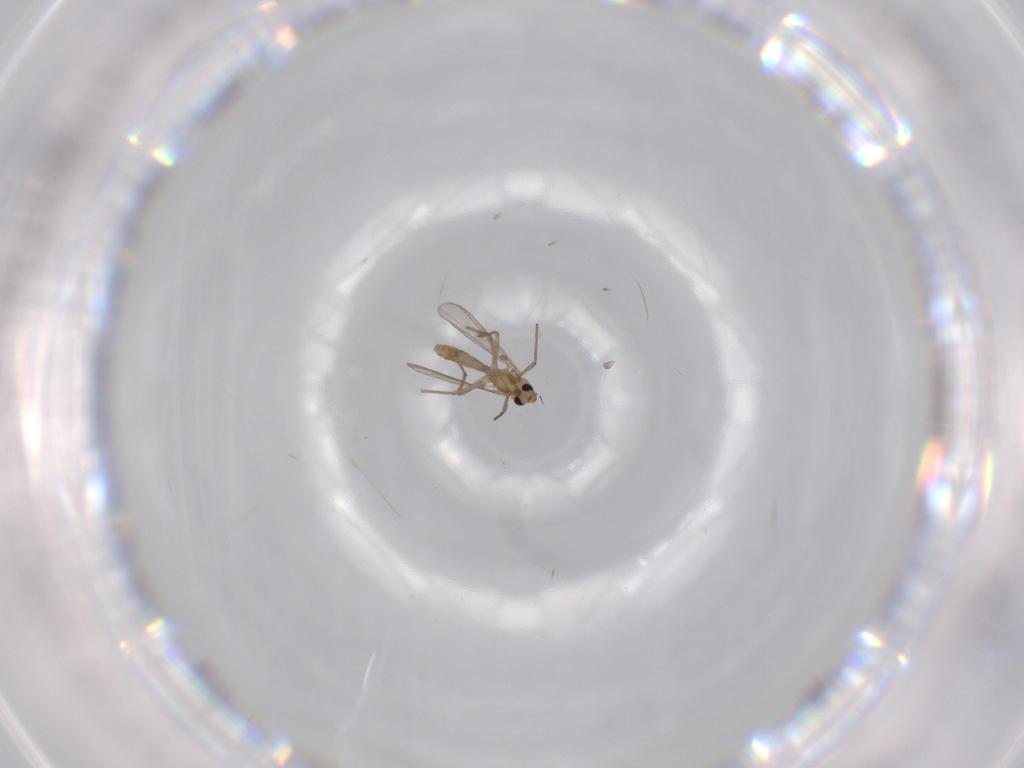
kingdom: Animalia
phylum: Arthropoda
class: Insecta
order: Diptera
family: Chironomidae
